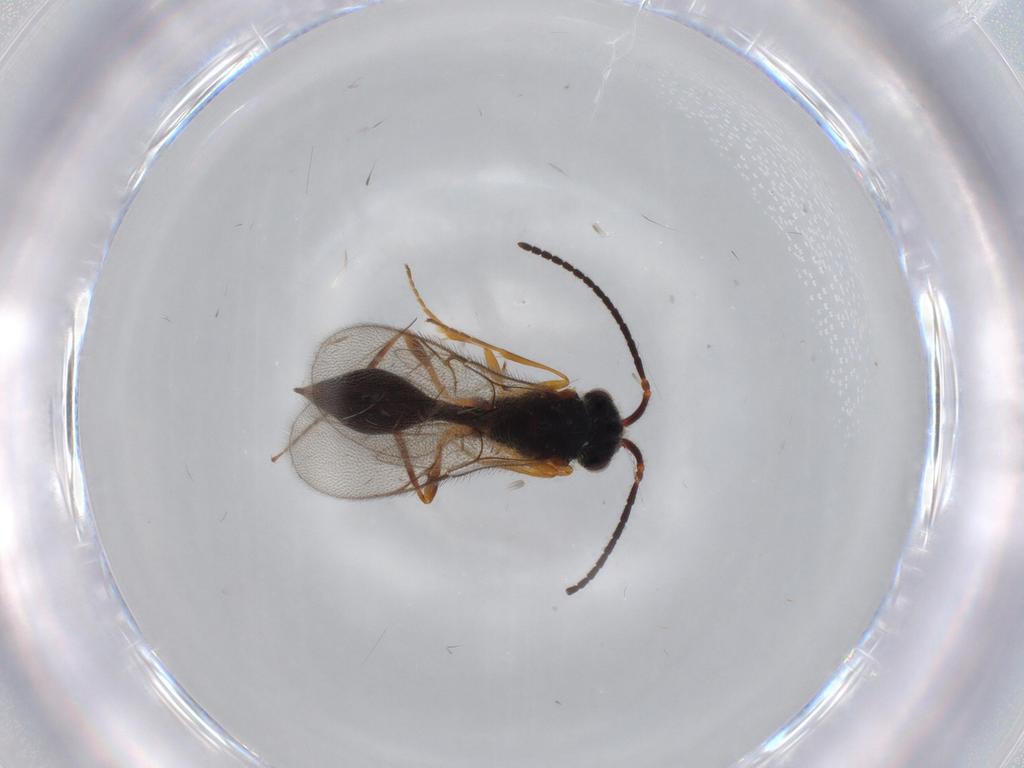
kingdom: Animalia
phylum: Arthropoda
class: Insecta
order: Hymenoptera
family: Diapriidae
